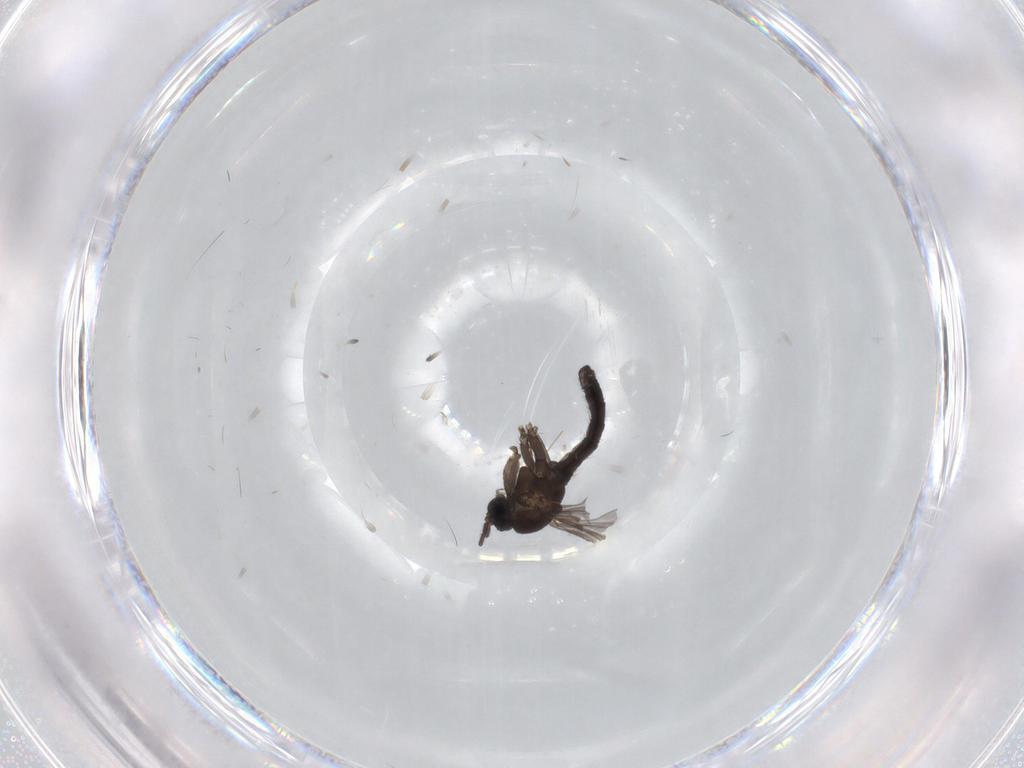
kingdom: Animalia
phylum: Arthropoda
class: Insecta
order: Diptera
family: Sciaridae
